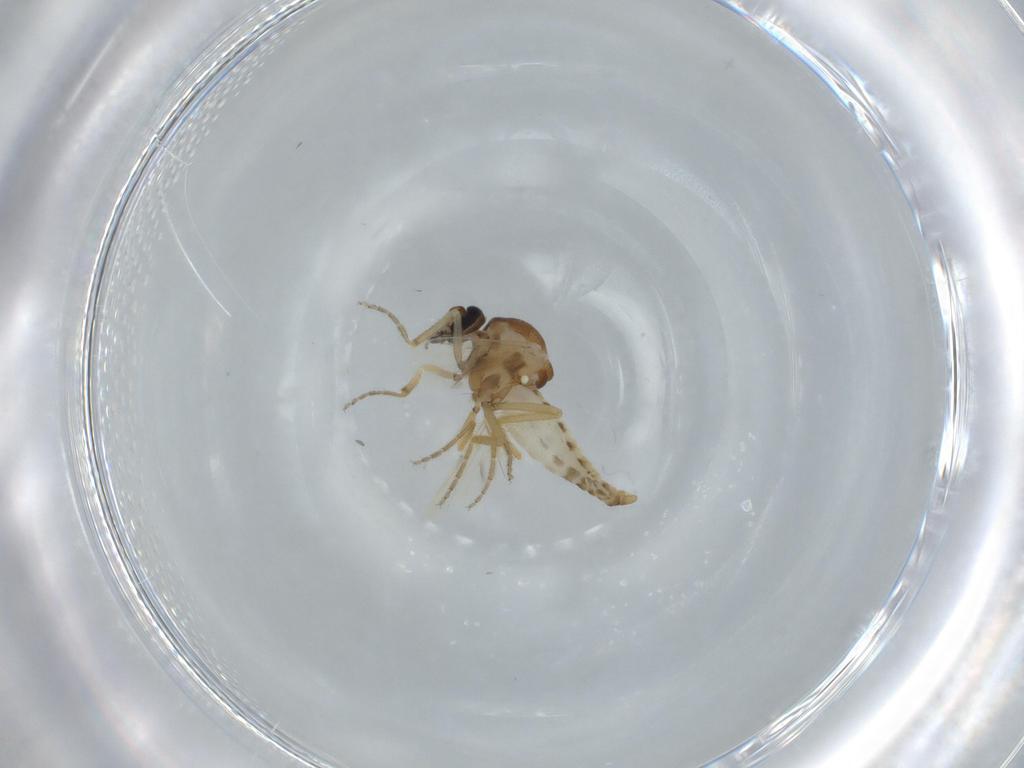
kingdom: Animalia
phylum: Arthropoda
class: Insecta
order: Diptera
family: Ceratopogonidae
